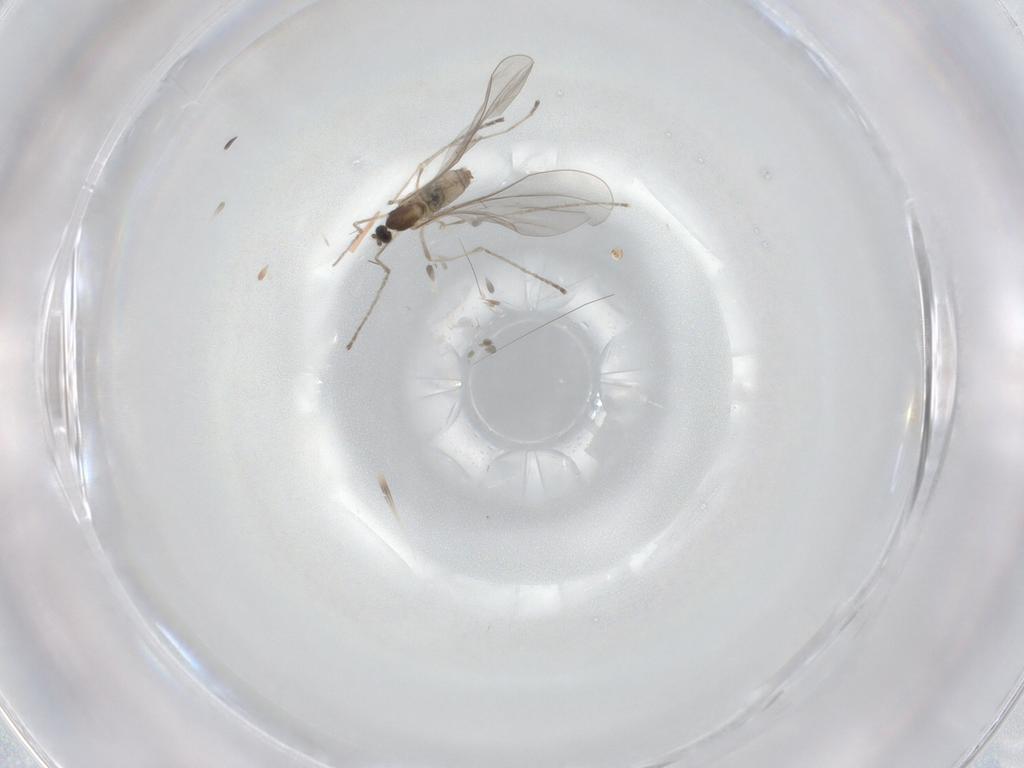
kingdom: Animalia
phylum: Arthropoda
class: Insecta
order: Diptera
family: Cecidomyiidae
